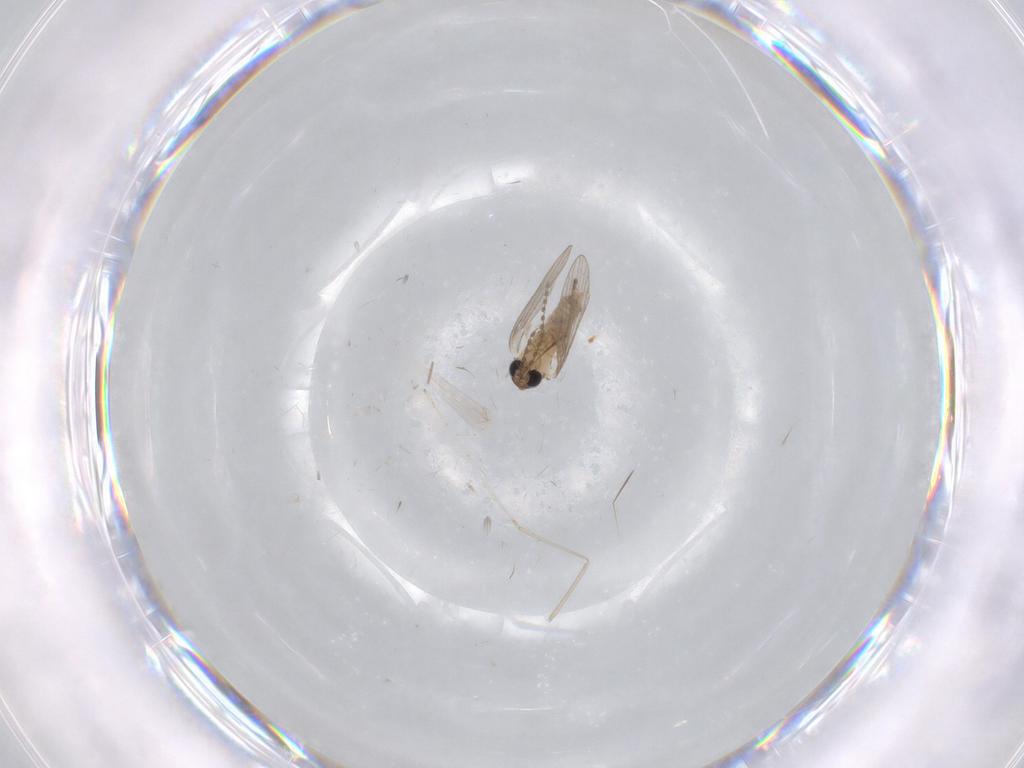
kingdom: Animalia
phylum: Arthropoda
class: Insecta
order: Diptera
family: Psychodidae
